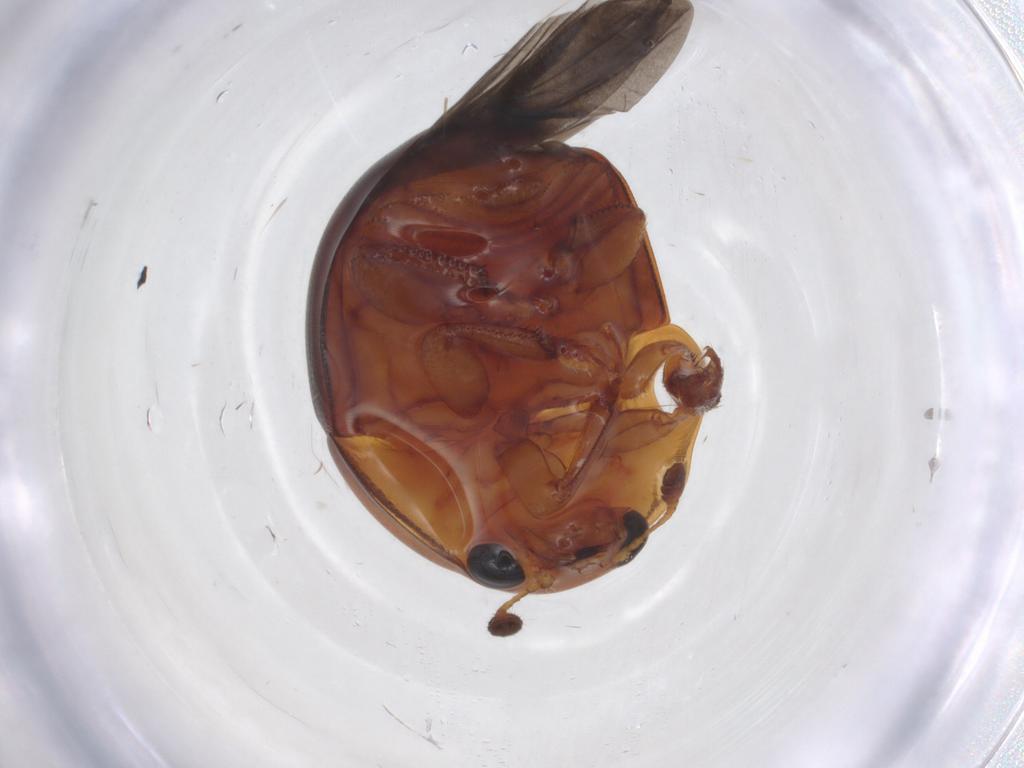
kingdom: Animalia
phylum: Arthropoda
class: Insecta
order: Coleoptera
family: Nitidulidae
